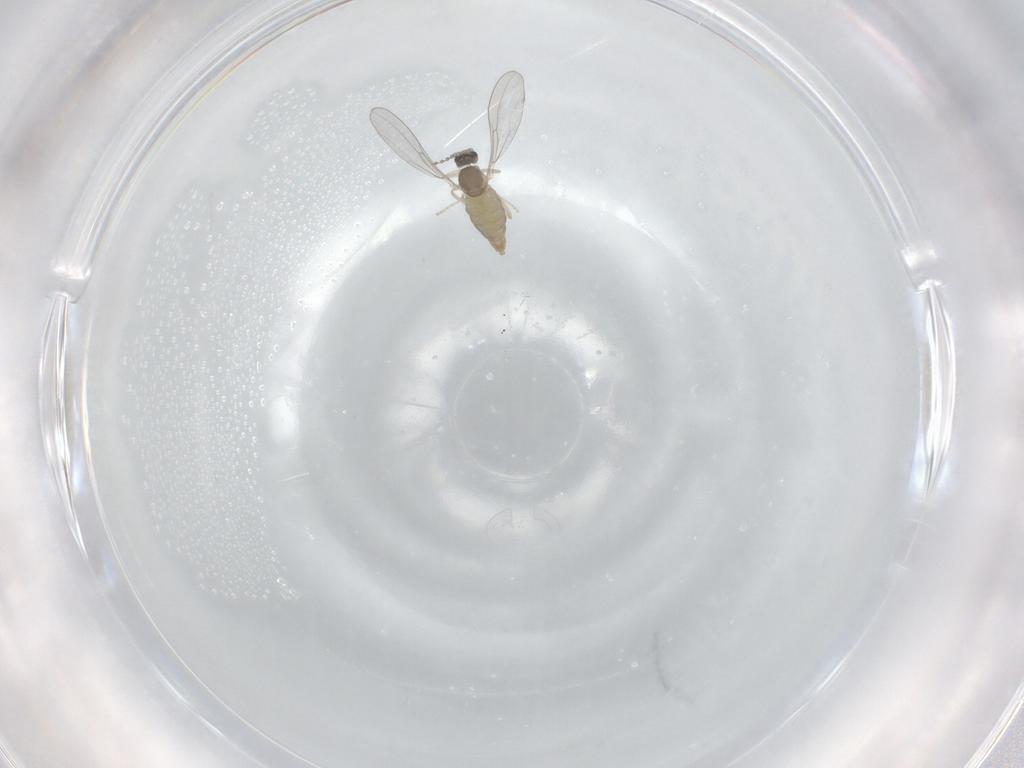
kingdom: Animalia
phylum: Arthropoda
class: Insecta
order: Diptera
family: Cecidomyiidae
